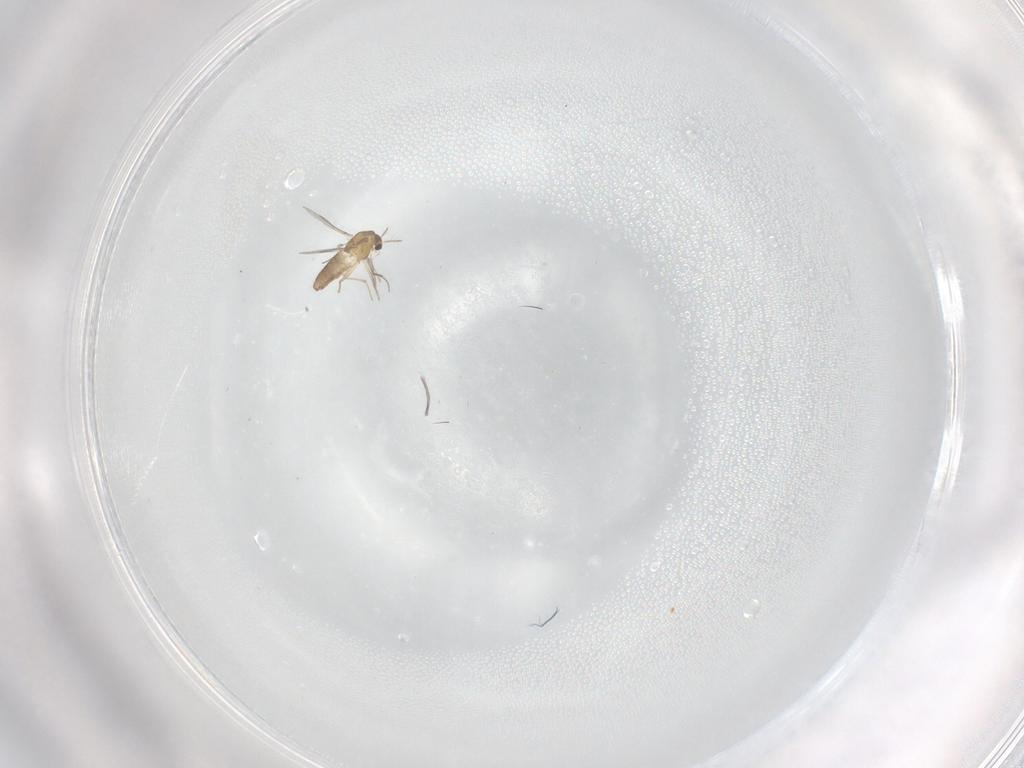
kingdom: Animalia
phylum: Arthropoda
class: Insecta
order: Diptera
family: Chironomidae
